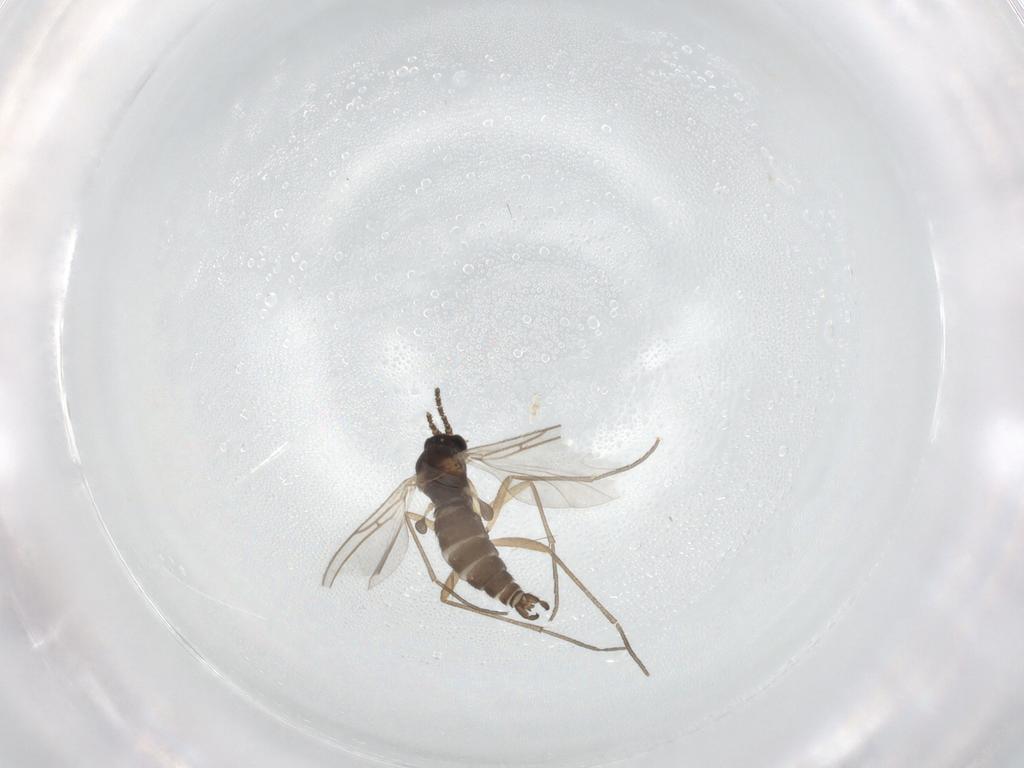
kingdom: Animalia
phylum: Arthropoda
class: Insecta
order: Diptera
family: Sciaridae
